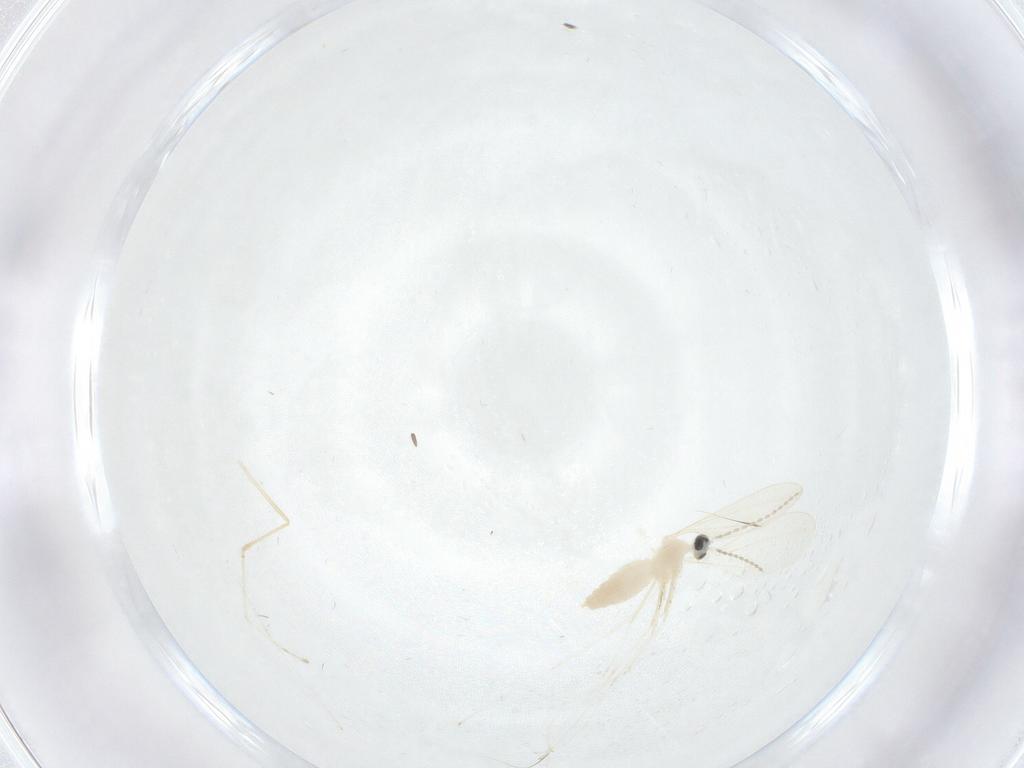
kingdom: Animalia
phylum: Arthropoda
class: Insecta
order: Diptera
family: Cecidomyiidae
